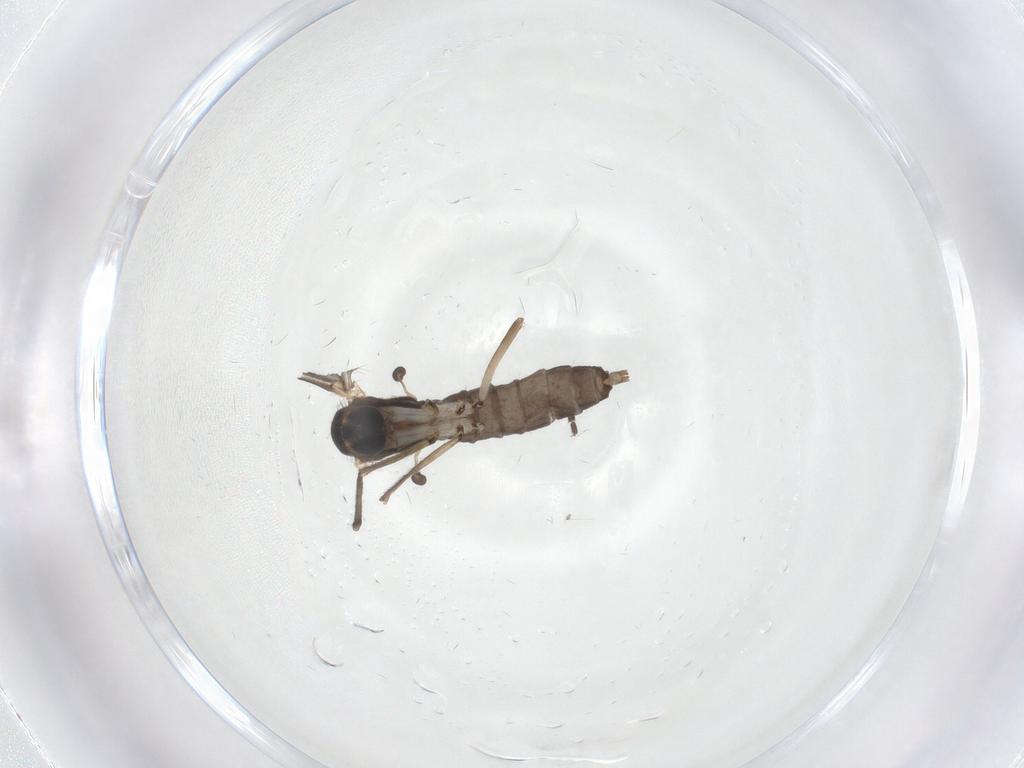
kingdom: Animalia
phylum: Arthropoda
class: Insecta
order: Diptera
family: Mycetophilidae
